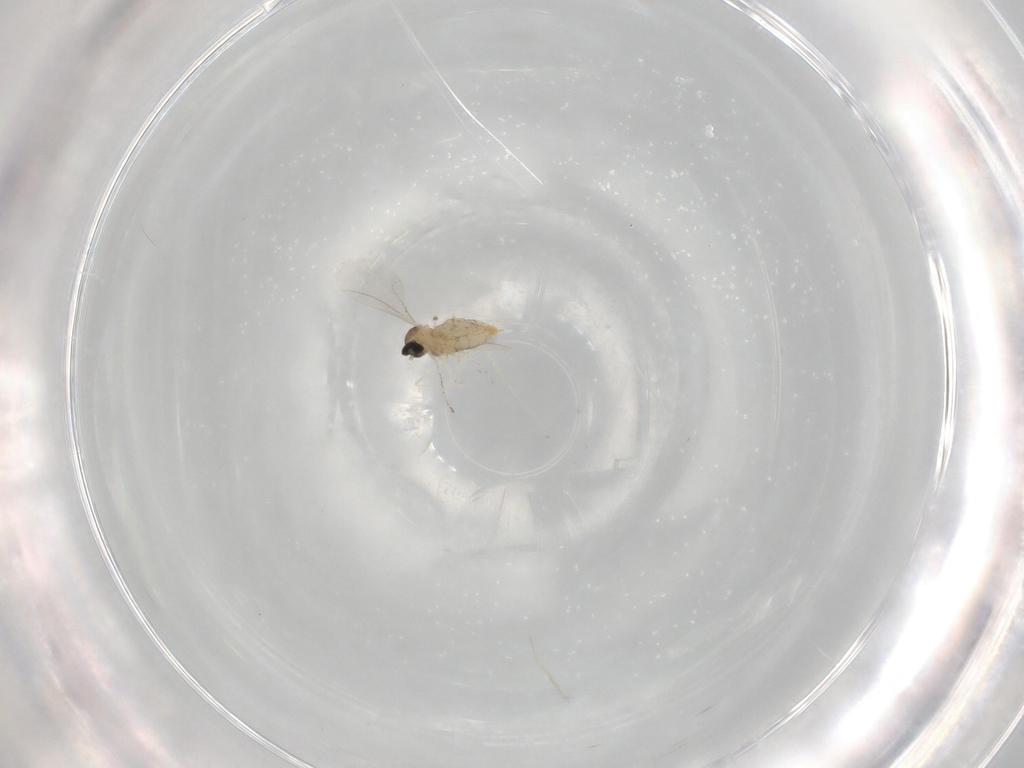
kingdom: Animalia
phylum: Arthropoda
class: Insecta
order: Diptera
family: Cecidomyiidae
